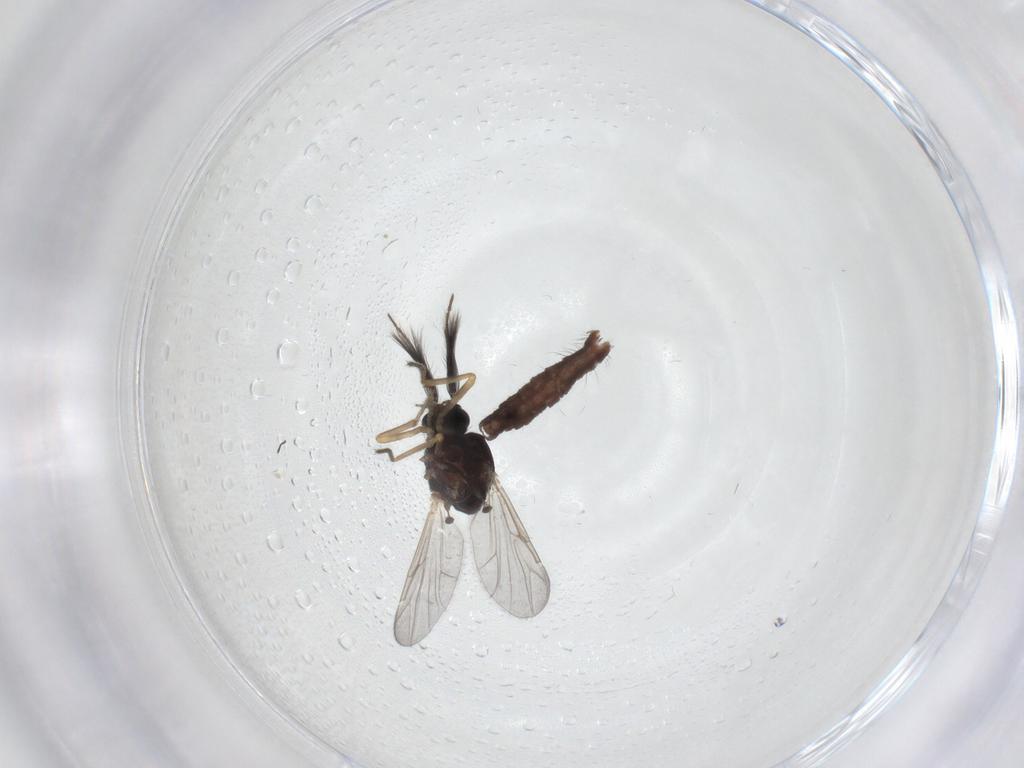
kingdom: Animalia
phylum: Arthropoda
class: Insecta
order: Diptera
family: Ceratopogonidae
